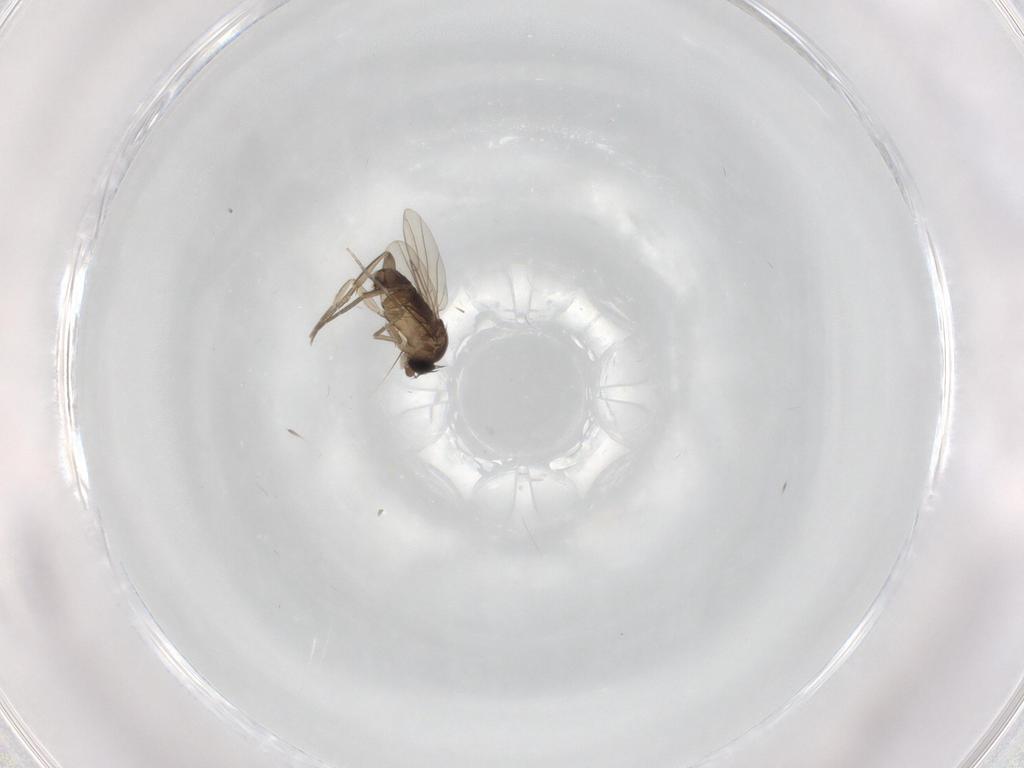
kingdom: Animalia
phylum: Arthropoda
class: Insecta
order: Diptera
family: Phoridae
